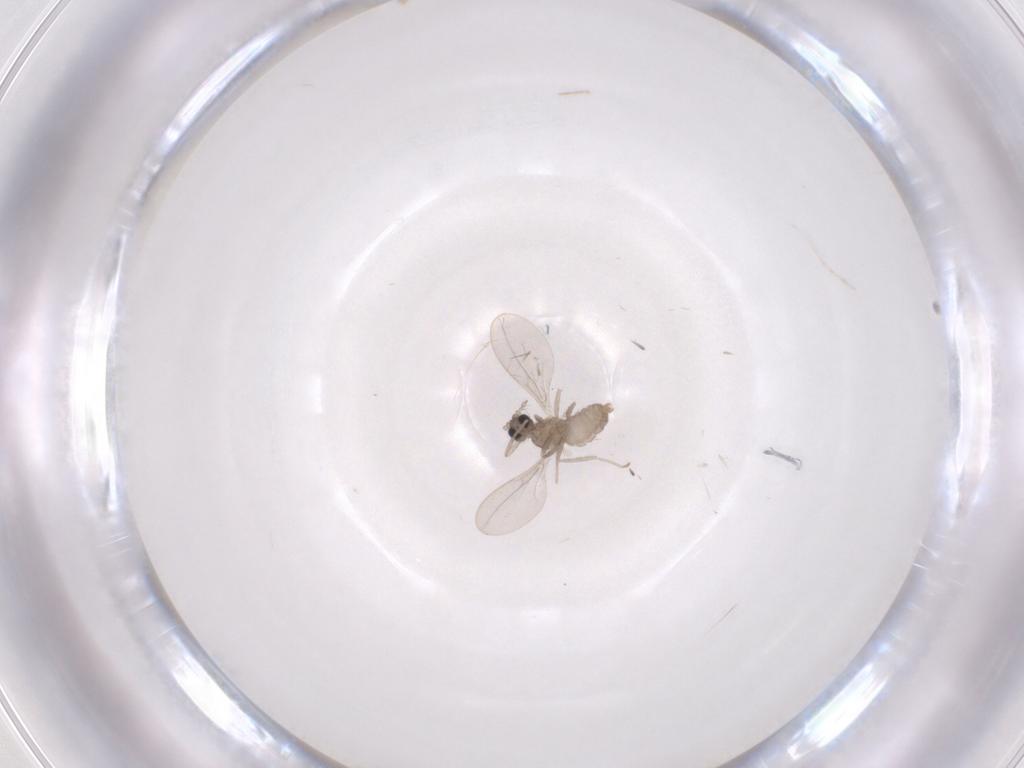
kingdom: Animalia
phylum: Arthropoda
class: Insecta
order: Diptera
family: Cecidomyiidae
